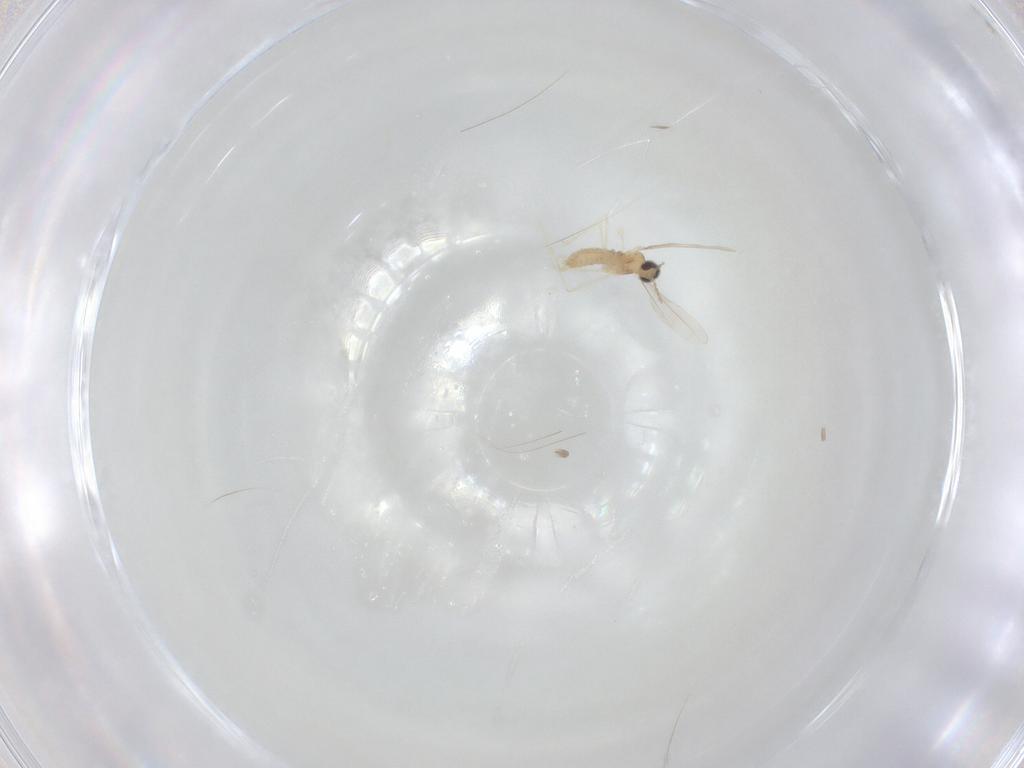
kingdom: Animalia
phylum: Arthropoda
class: Insecta
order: Diptera
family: Cecidomyiidae
